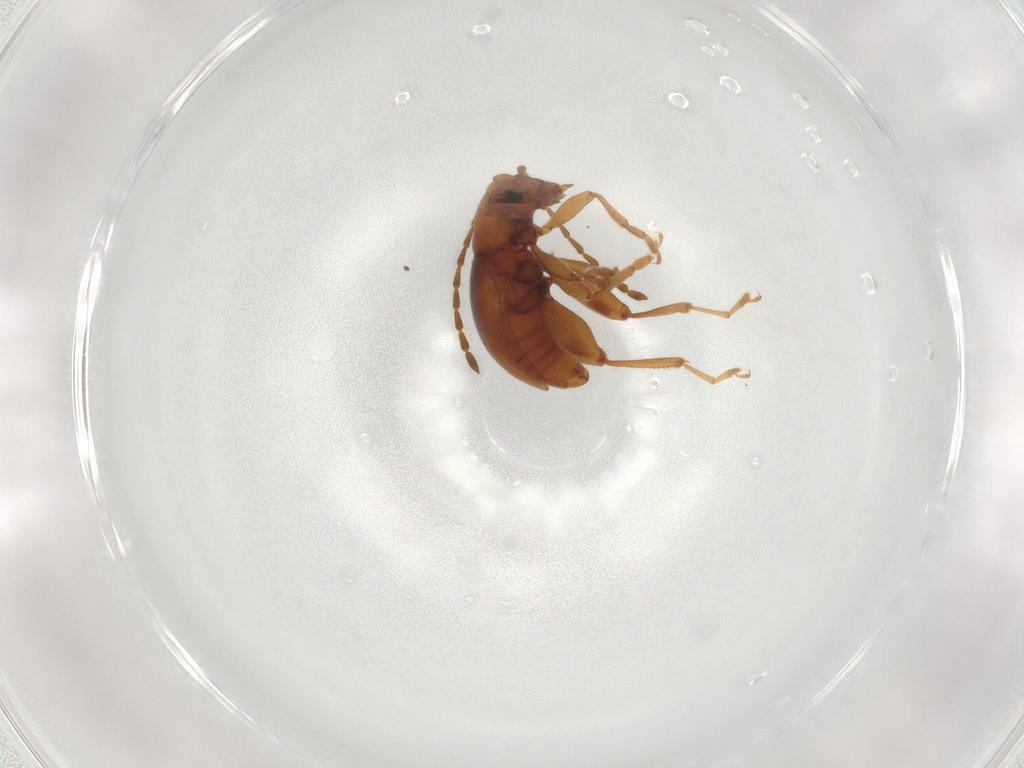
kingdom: Animalia
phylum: Arthropoda
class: Insecta
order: Coleoptera
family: Chrysomelidae
